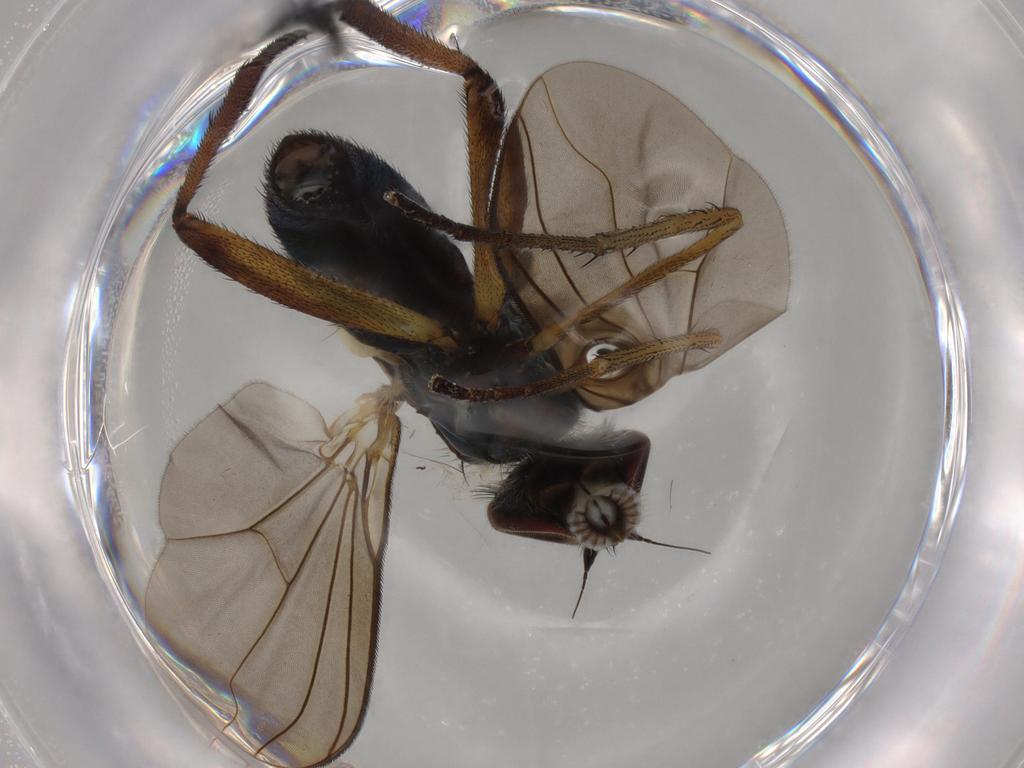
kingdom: Animalia
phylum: Arthropoda
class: Insecta
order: Diptera
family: Dolichopodidae
